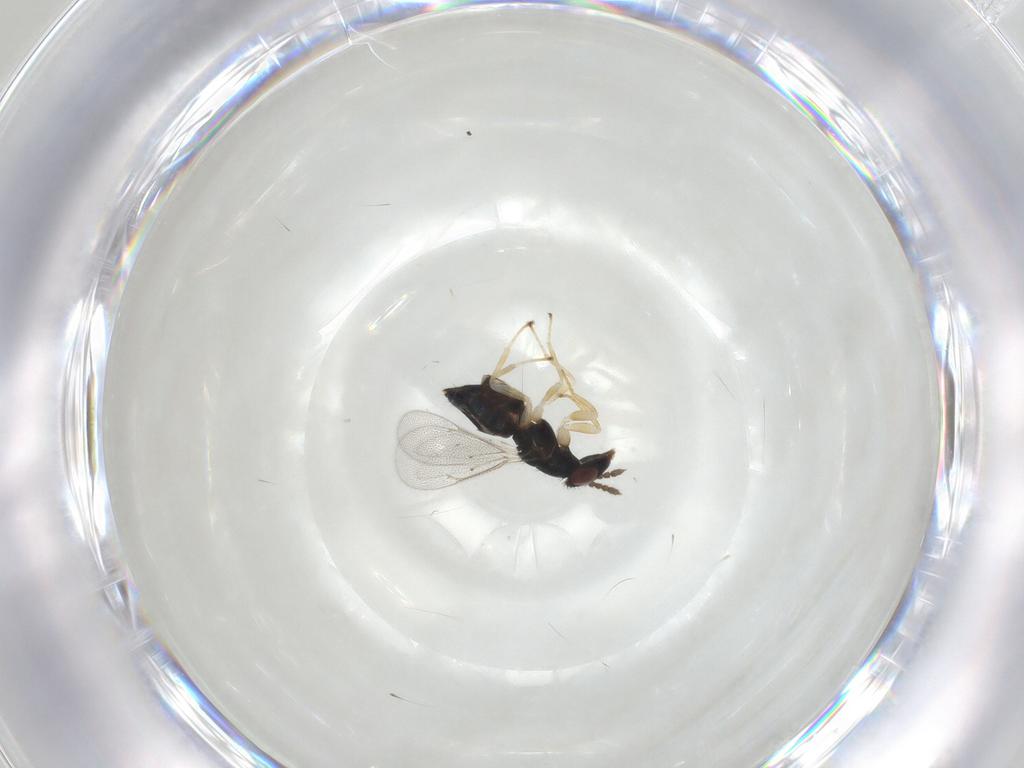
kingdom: Animalia
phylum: Arthropoda
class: Insecta
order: Hymenoptera
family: Eulophidae
